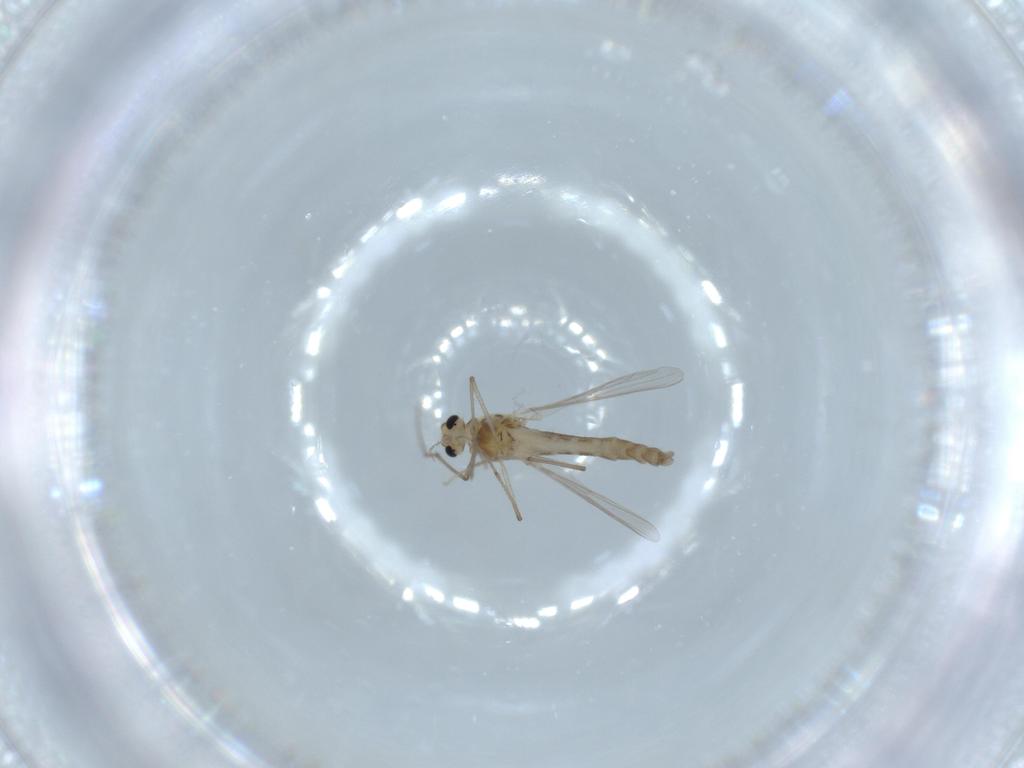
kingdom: Animalia
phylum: Arthropoda
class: Insecta
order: Diptera
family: Chironomidae
